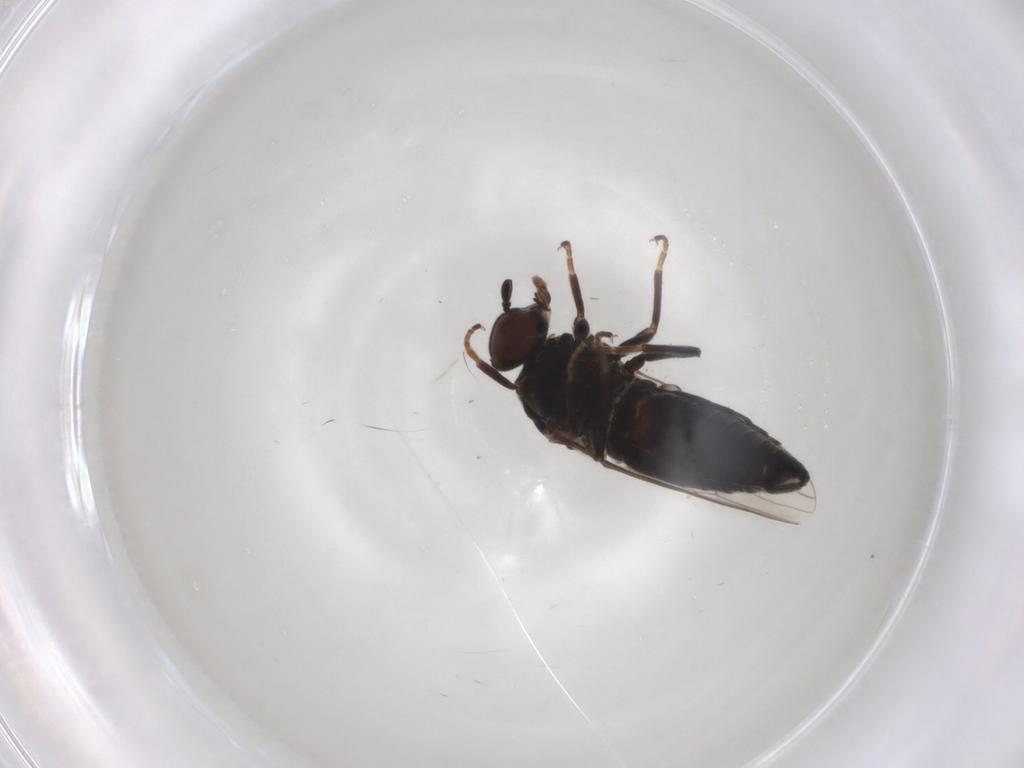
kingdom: Animalia
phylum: Arthropoda
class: Insecta
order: Diptera
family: Scenopinidae
